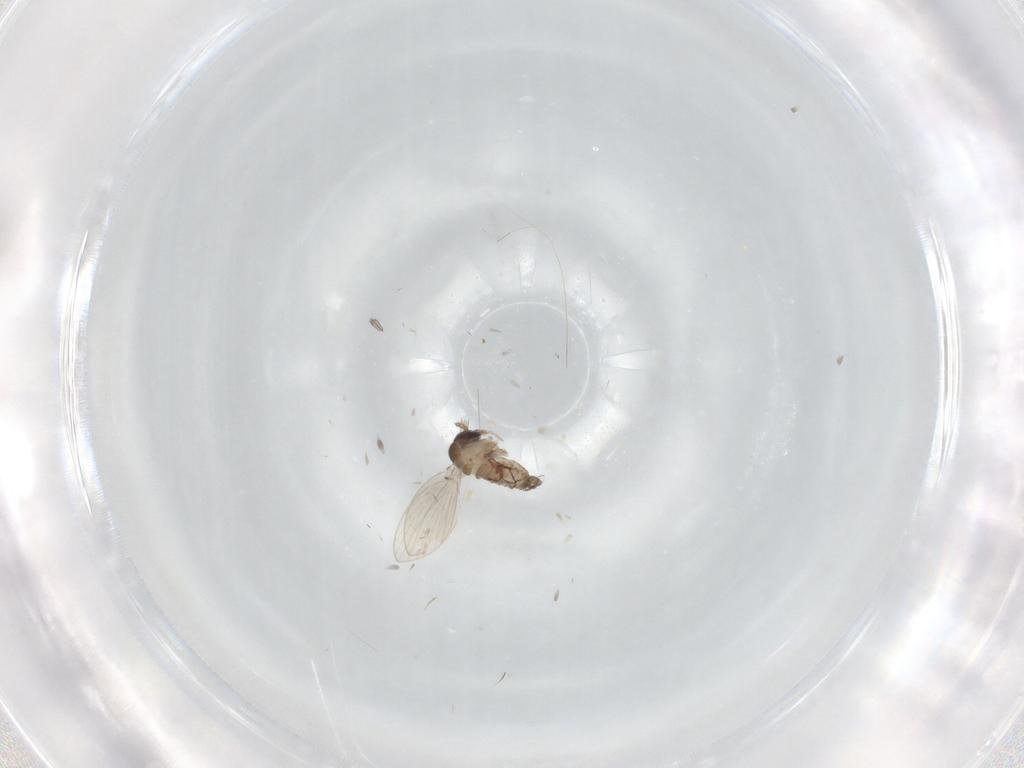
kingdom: Animalia
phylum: Arthropoda
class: Insecta
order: Diptera
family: Psychodidae
